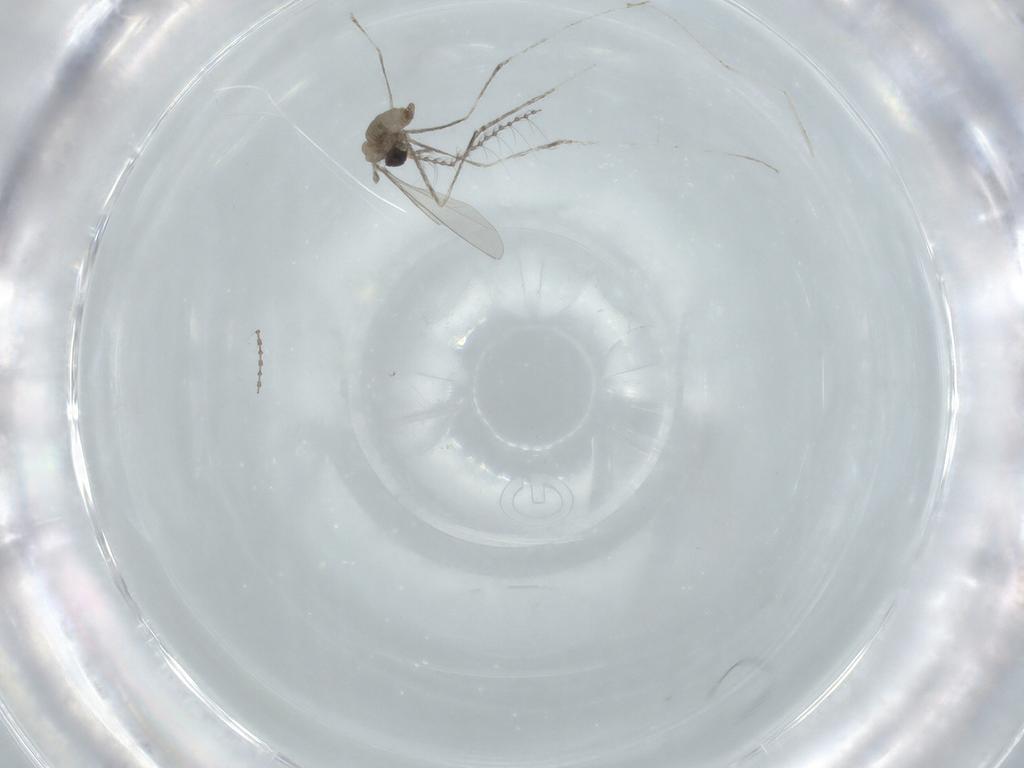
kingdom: Animalia
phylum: Arthropoda
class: Insecta
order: Diptera
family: Cecidomyiidae
